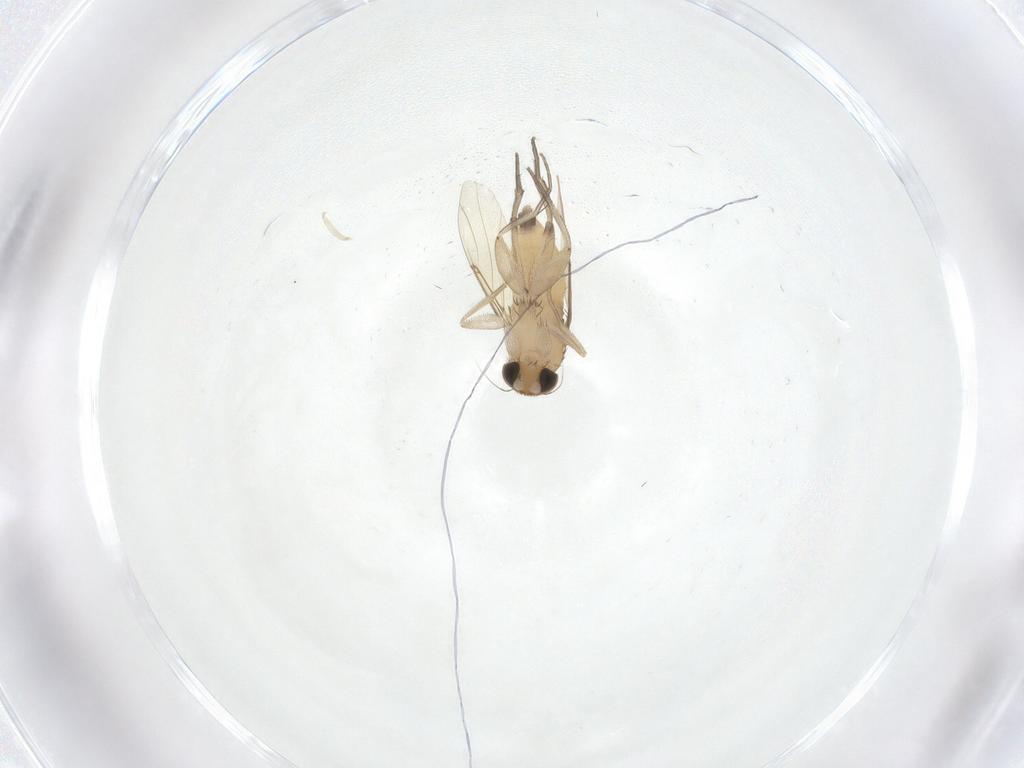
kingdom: Animalia
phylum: Arthropoda
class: Insecta
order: Diptera
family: Phoridae
